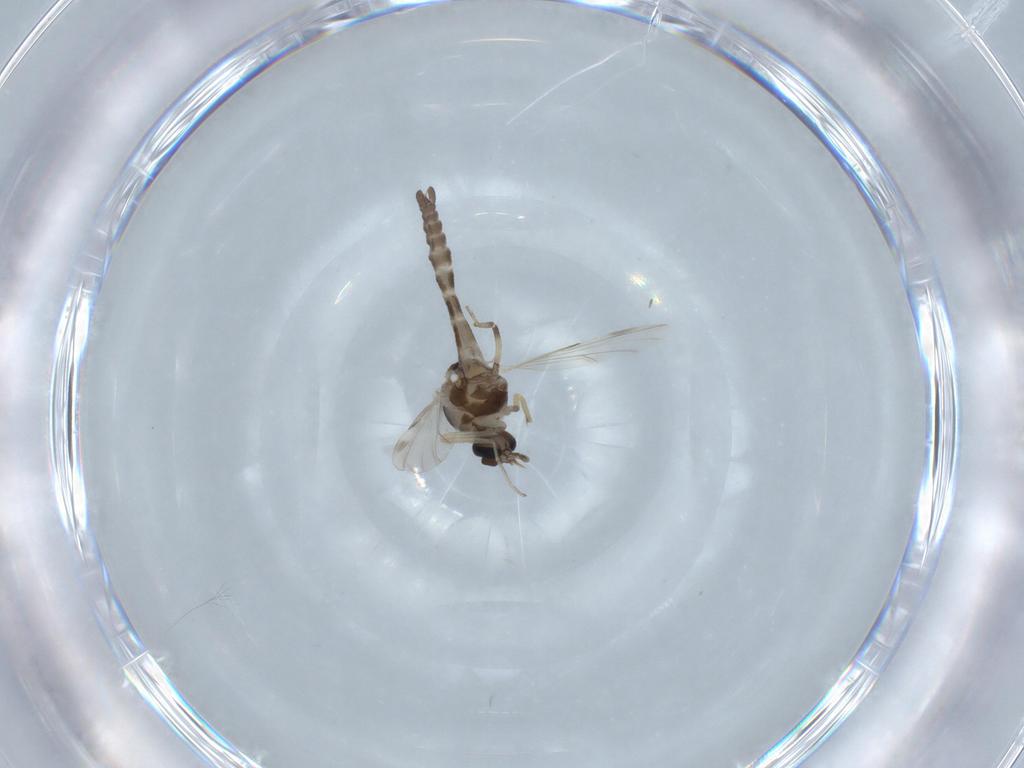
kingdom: Animalia
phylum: Arthropoda
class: Insecta
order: Diptera
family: Ceratopogonidae
